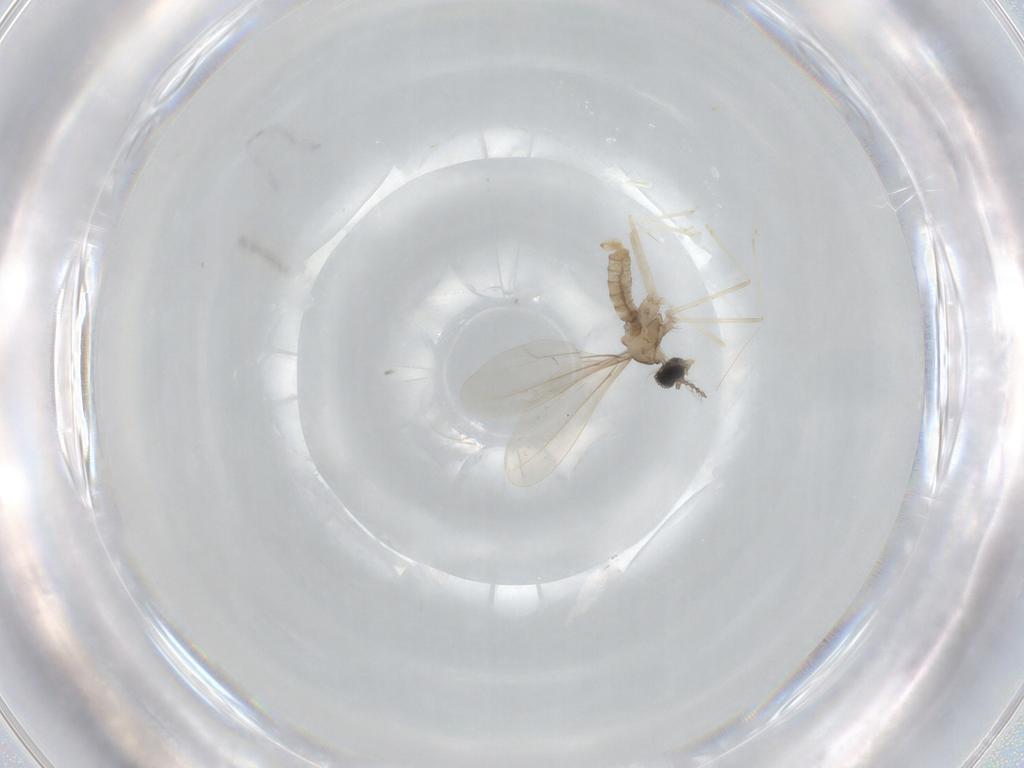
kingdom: Animalia
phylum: Arthropoda
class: Insecta
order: Diptera
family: Cecidomyiidae
